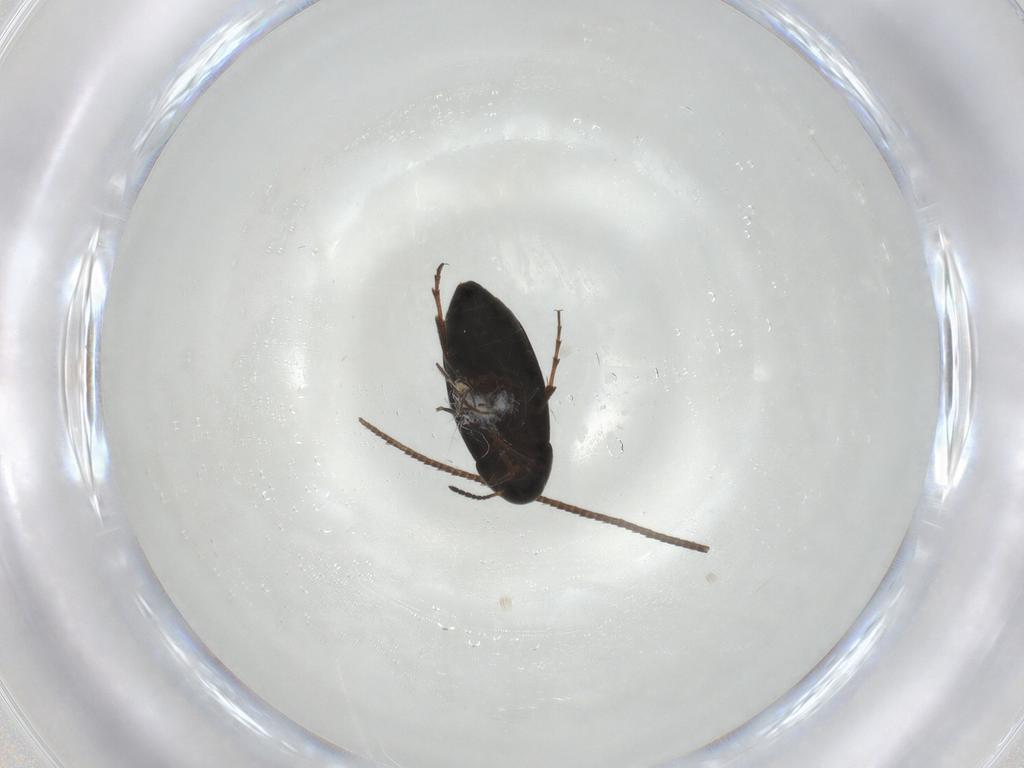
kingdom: Animalia
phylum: Arthropoda
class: Insecta
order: Coleoptera
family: Scraptiidae
